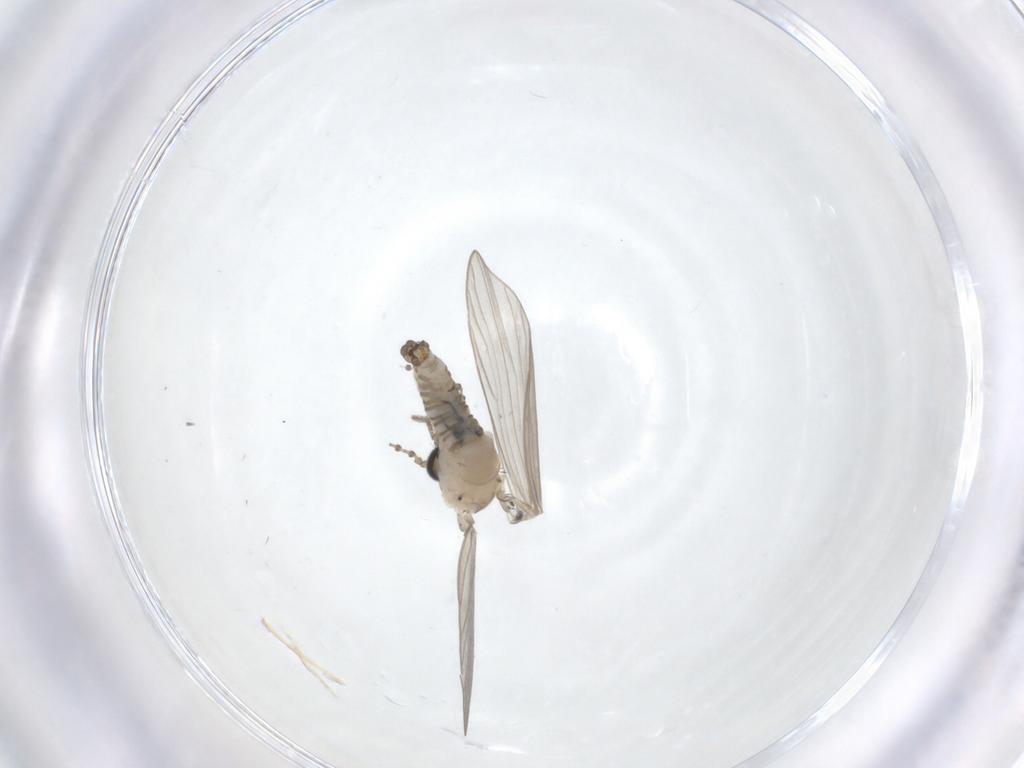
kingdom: Animalia
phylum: Arthropoda
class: Insecta
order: Diptera
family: Psychodidae
